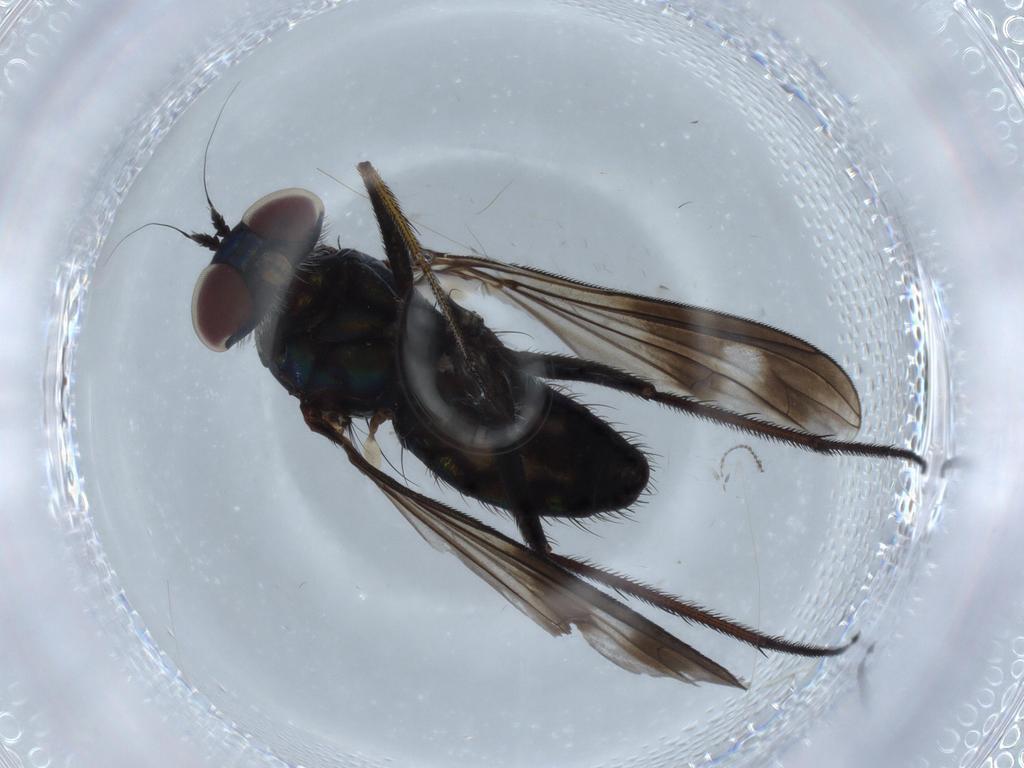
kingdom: Animalia
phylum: Arthropoda
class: Insecta
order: Diptera
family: Dolichopodidae
